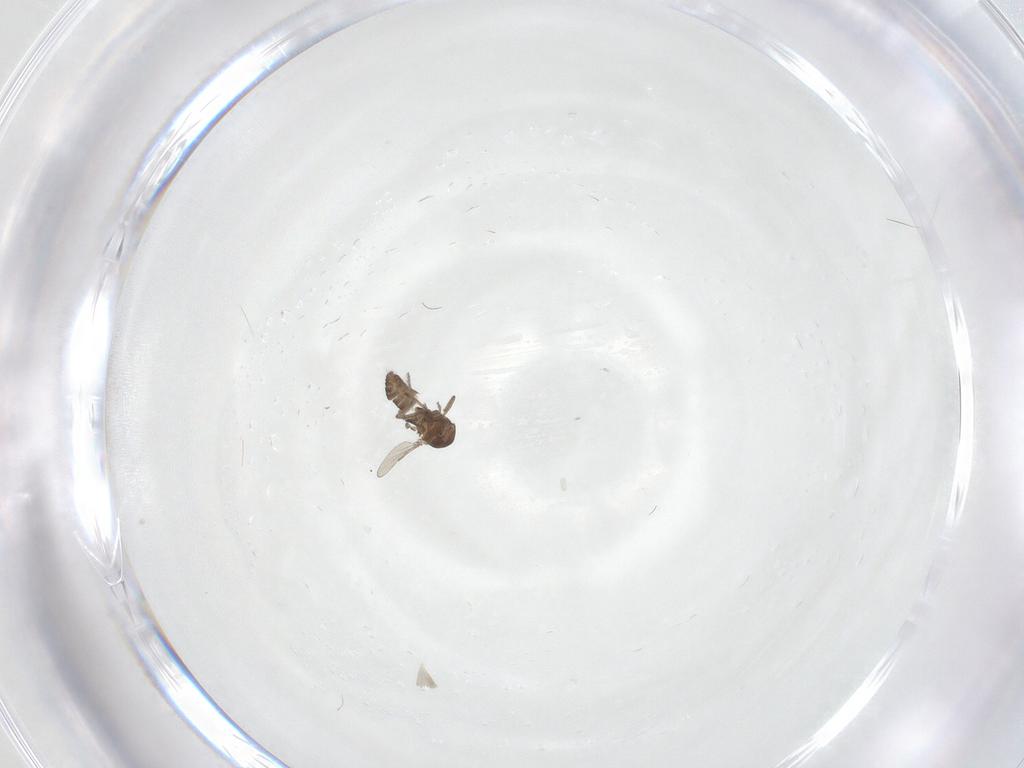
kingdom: Animalia
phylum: Arthropoda
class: Insecta
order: Diptera
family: Ceratopogonidae
